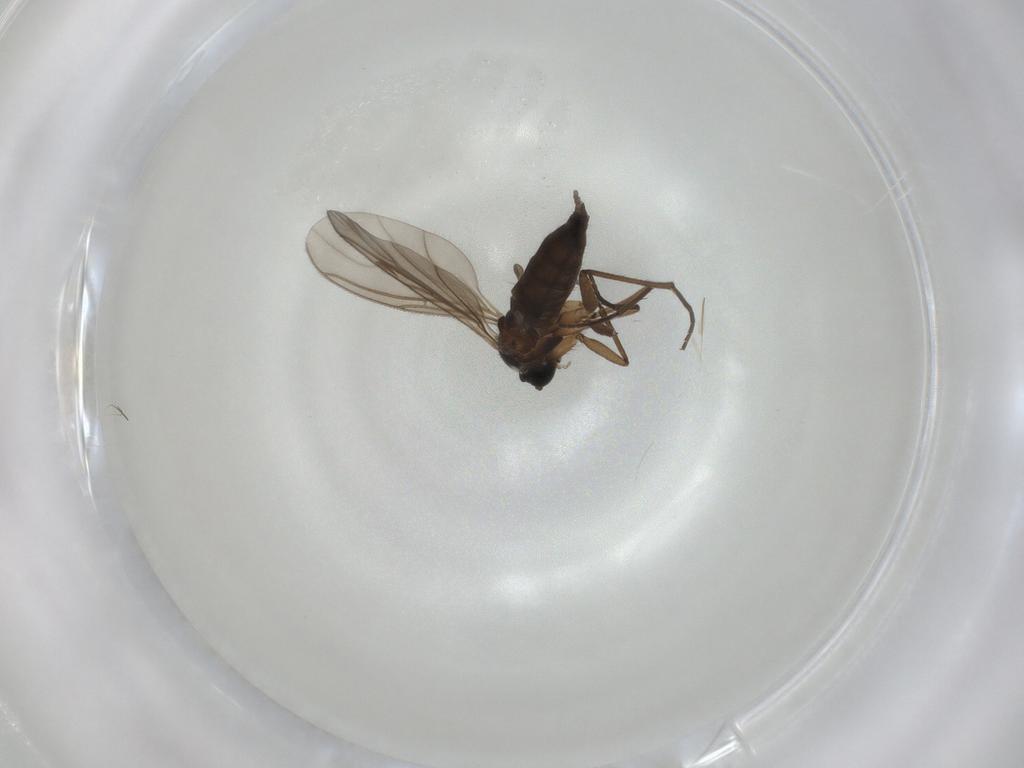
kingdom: Animalia
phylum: Arthropoda
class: Insecta
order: Diptera
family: Sciaridae
